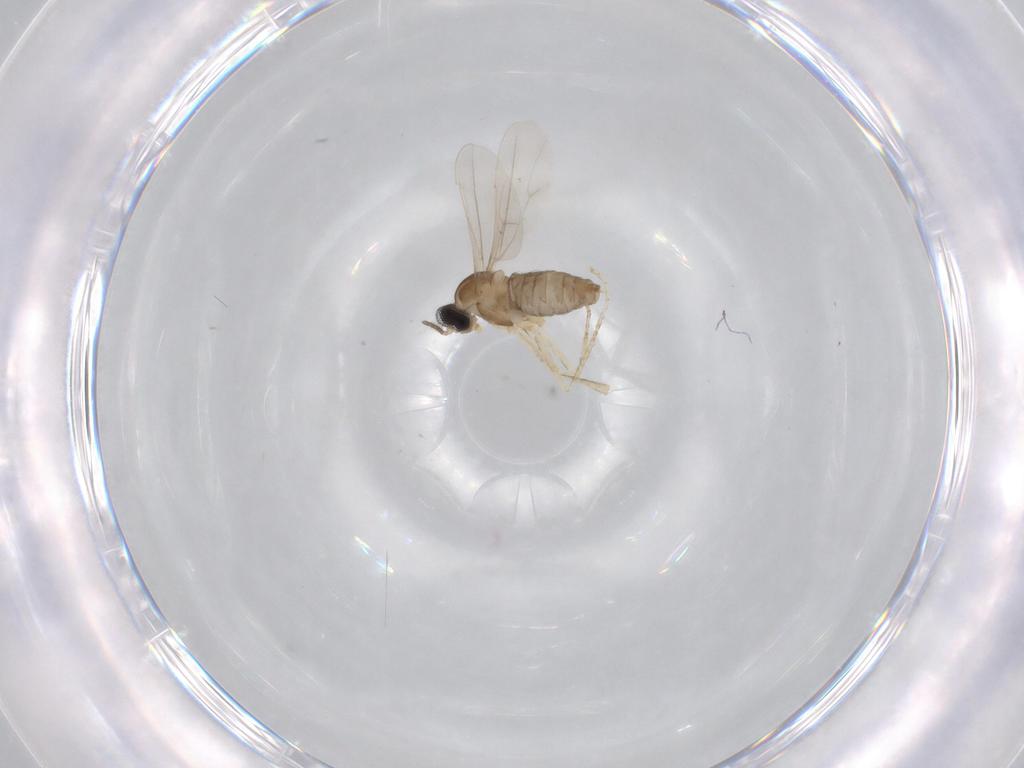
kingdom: Animalia
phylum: Arthropoda
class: Insecta
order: Diptera
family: Cecidomyiidae
